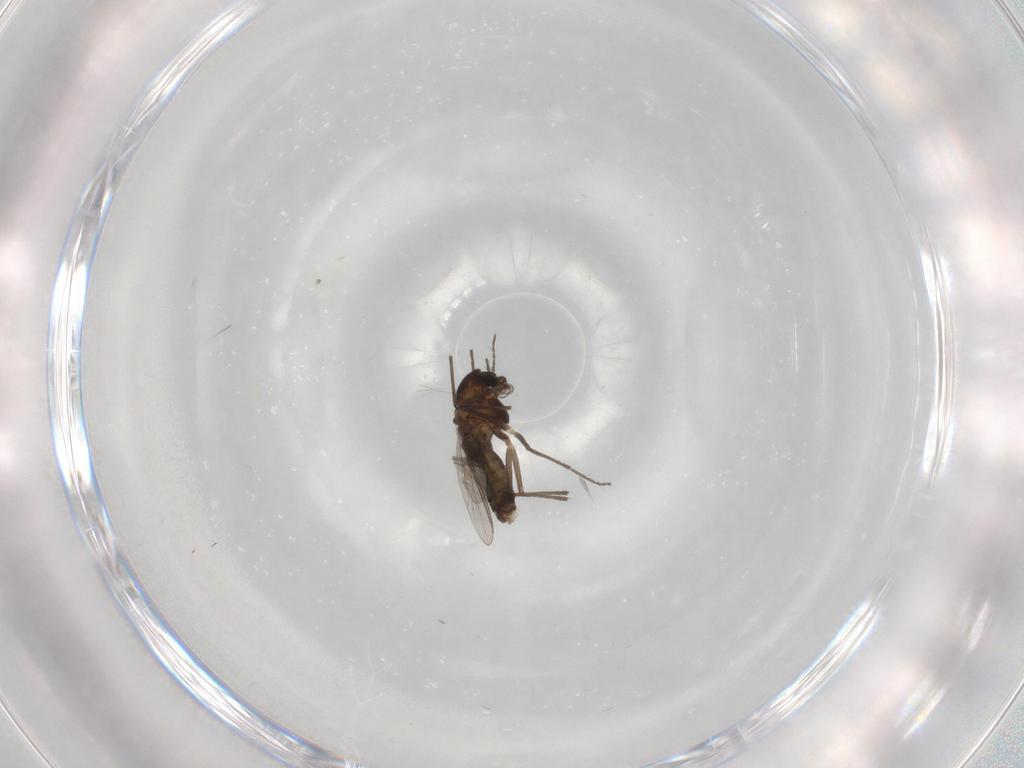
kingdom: Animalia
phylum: Arthropoda
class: Insecta
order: Diptera
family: Chironomidae
